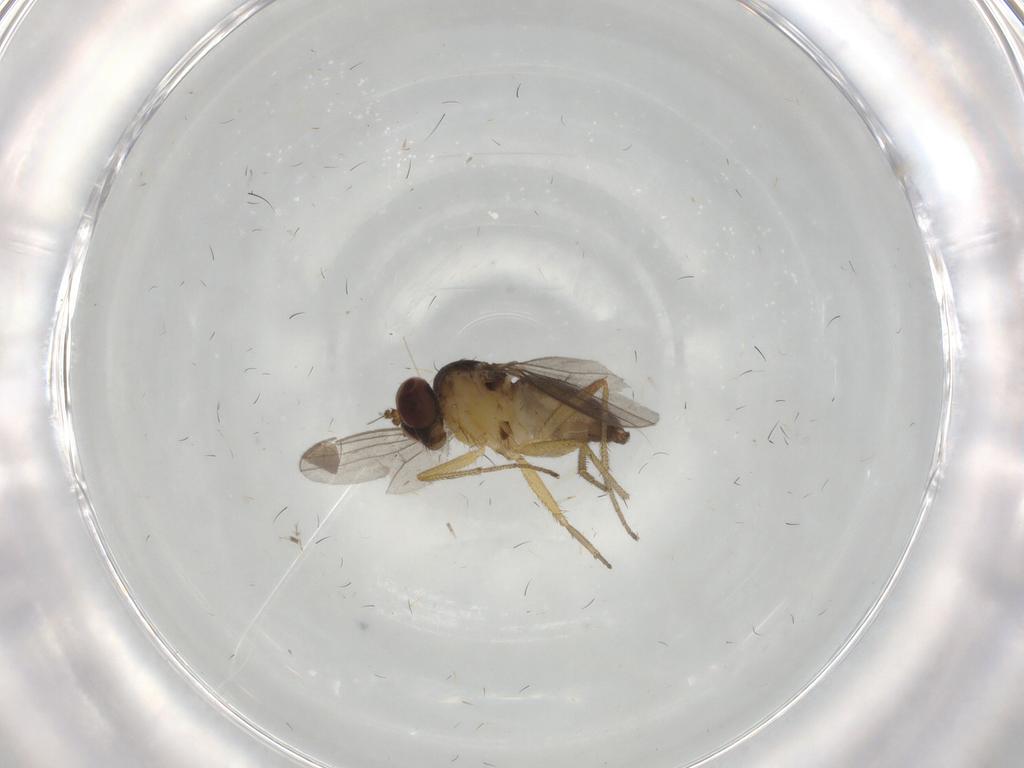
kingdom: Animalia
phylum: Arthropoda
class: Insecta
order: Diptera
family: Dolichopodidae
